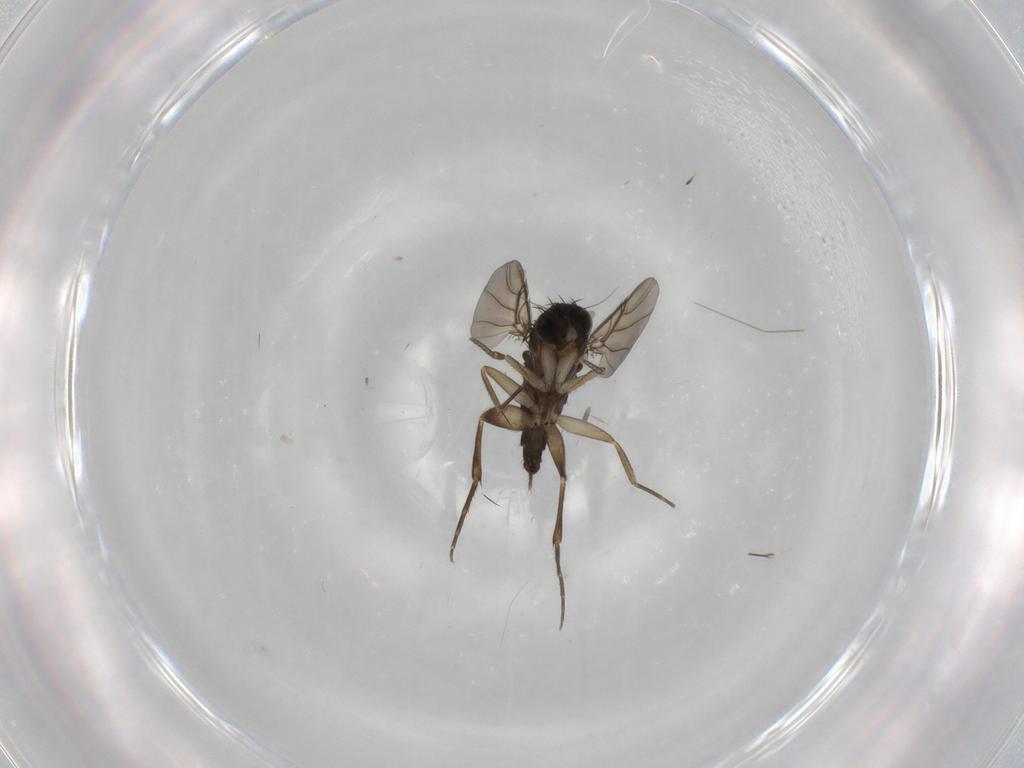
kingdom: Animalia
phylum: Arthropoda
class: Insecta
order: Diptera
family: Phoridae
